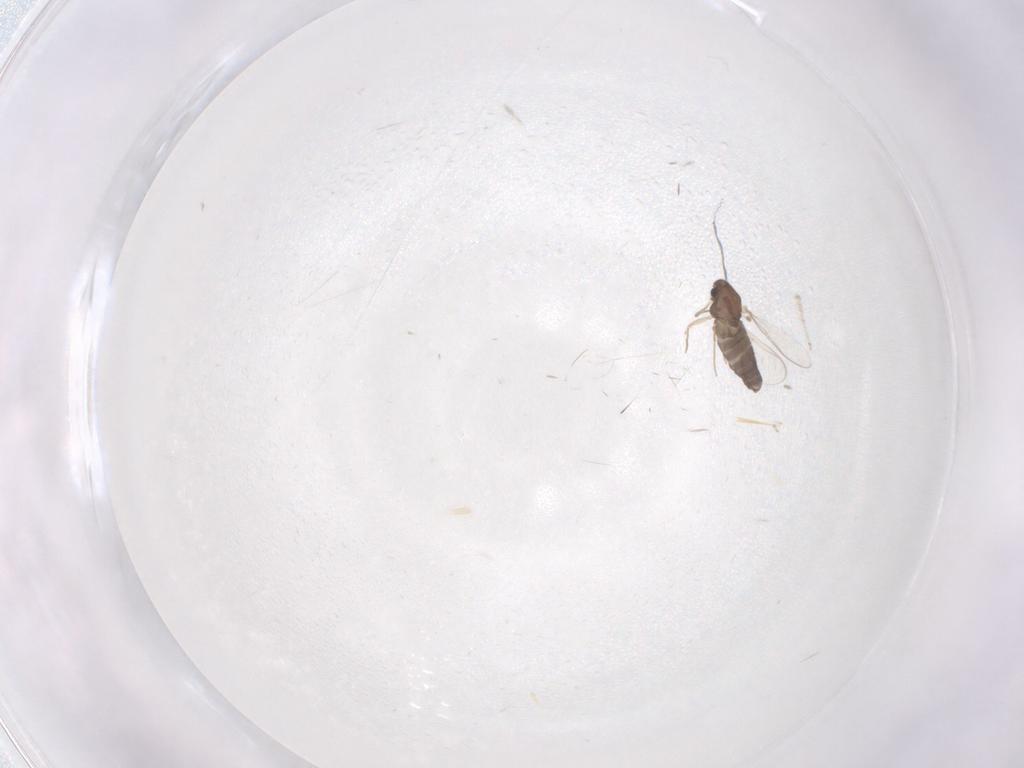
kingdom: Animalia
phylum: Arthropoda
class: Insecta
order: Diptera
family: Chironomidae
